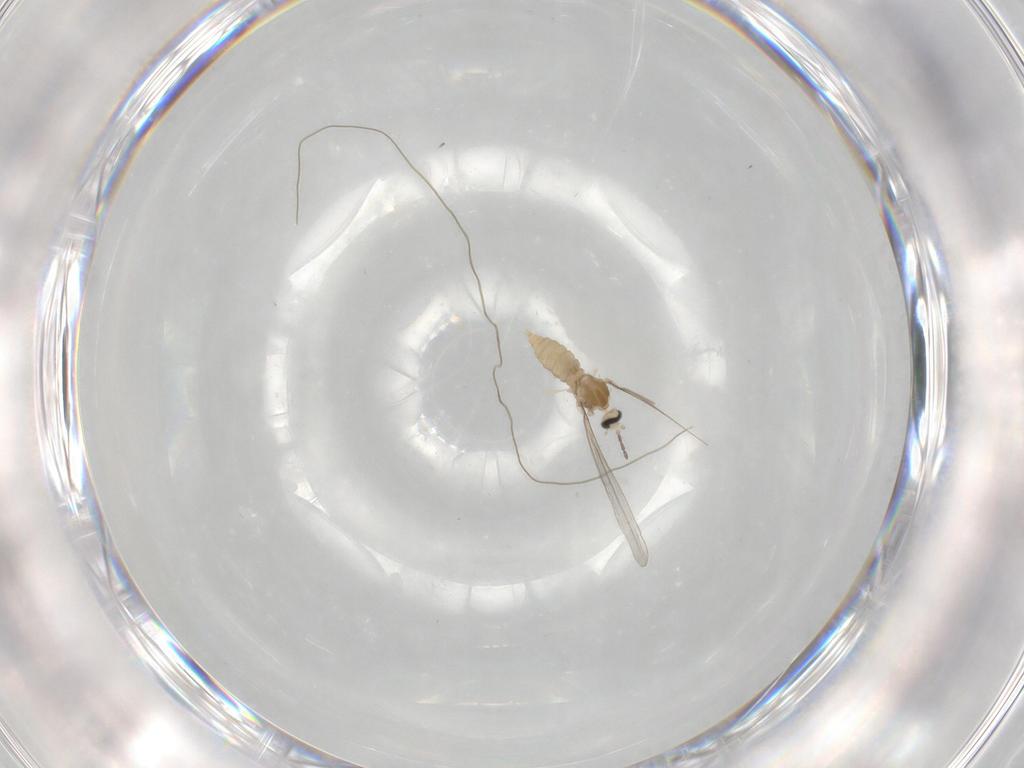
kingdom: Animalia
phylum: Arthropoda
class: Insecta
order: Diptera
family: Cecidomyiidae
